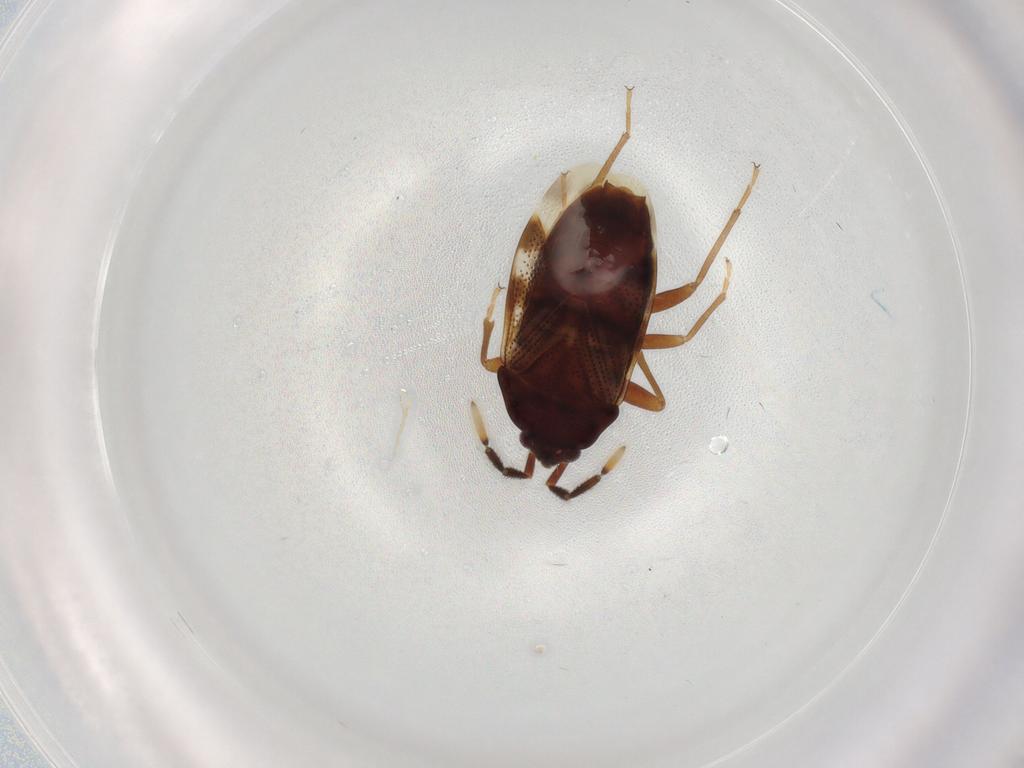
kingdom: Animalia
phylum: Arthropoda
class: Insecta
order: Hemiptera
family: Rhyparochromidae
